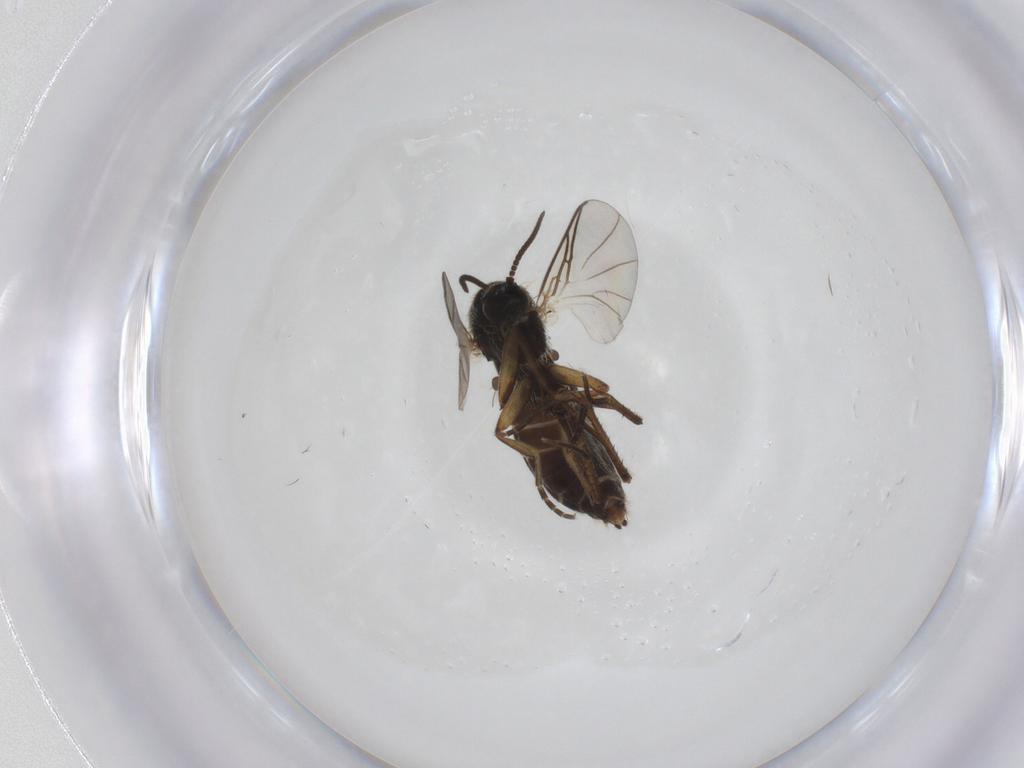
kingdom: Animalia
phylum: Arthropoda
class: Insecta
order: Diptera
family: Mycetophilidae
